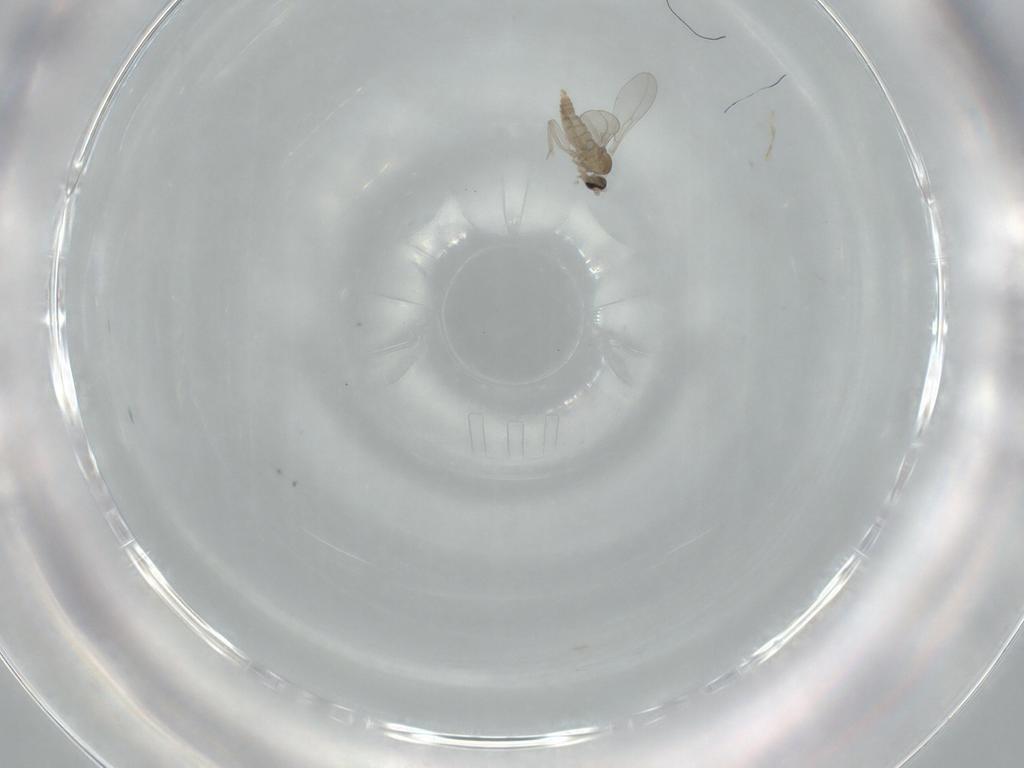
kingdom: Animalia
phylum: Arthropoda
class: Insecta
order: Diptera
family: Cecidomyiidae
